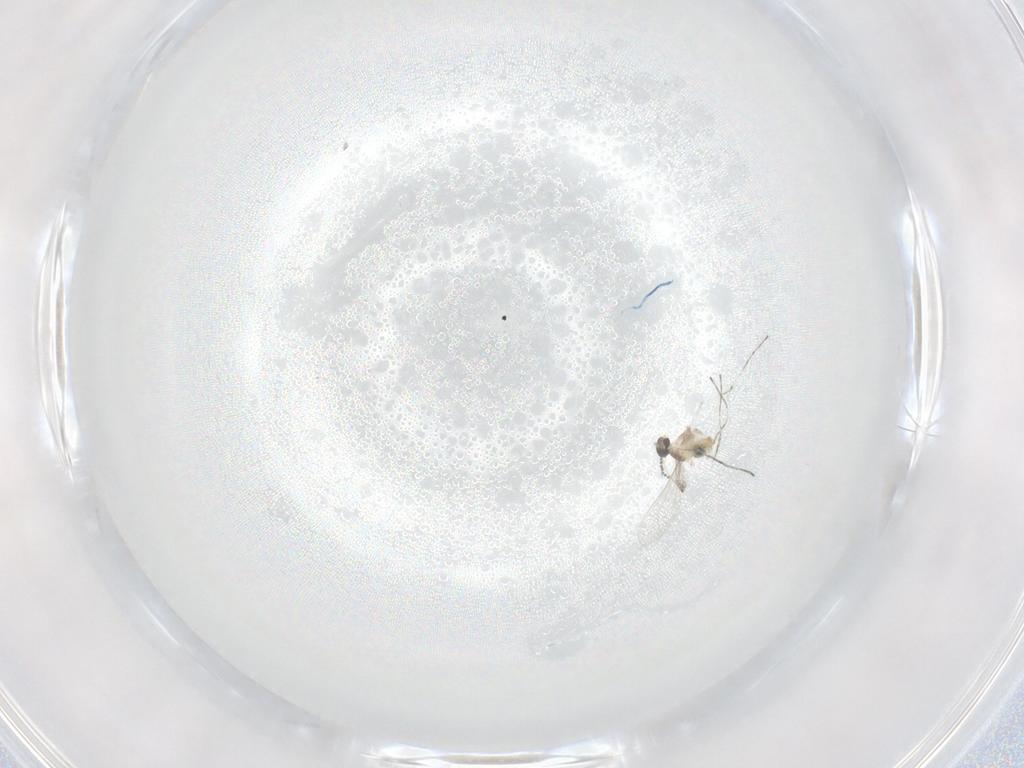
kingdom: Animalia
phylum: Arthropoda
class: Insecta
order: Diptera
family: Cecidomyiidae
